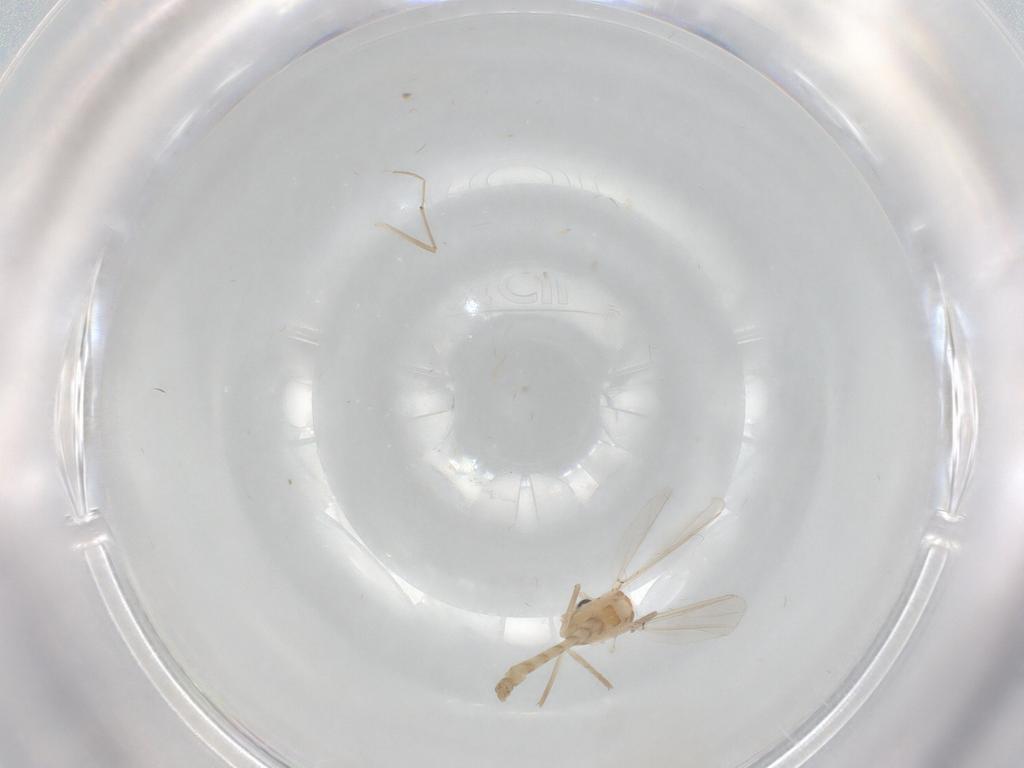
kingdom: Animalia
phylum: Arthropoda
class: Insecta
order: Diptera
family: Chironomidae
